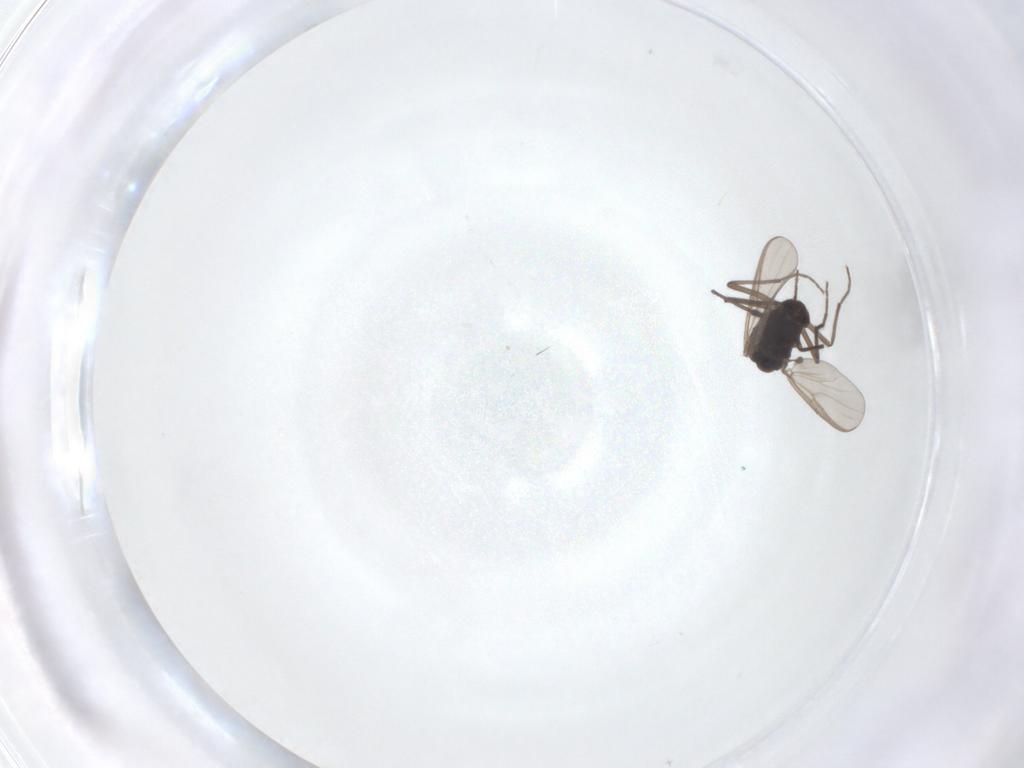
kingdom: Animalia
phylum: Arthropoda
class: Insecta
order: Diptera
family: Chironomidae
